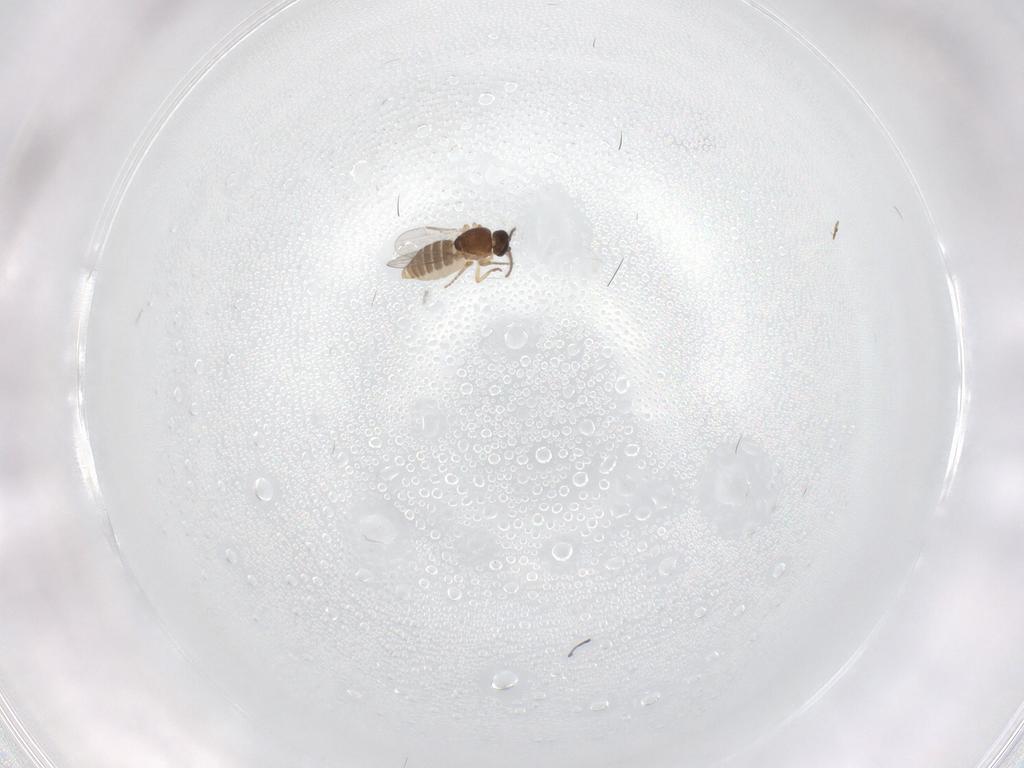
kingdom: Animalia
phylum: Arthropoda
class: Insecta
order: Diptera
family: Ceratopogonidae
